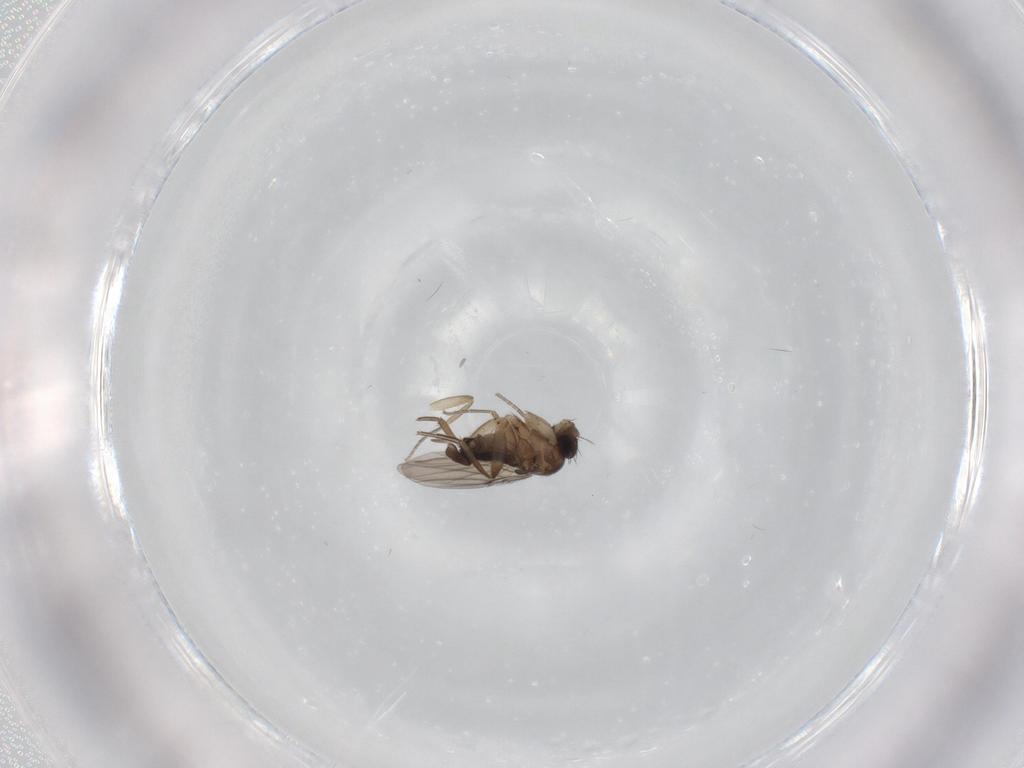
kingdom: Animalia
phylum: Arthropoda
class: Insecta
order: Diptera
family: Phoridae
